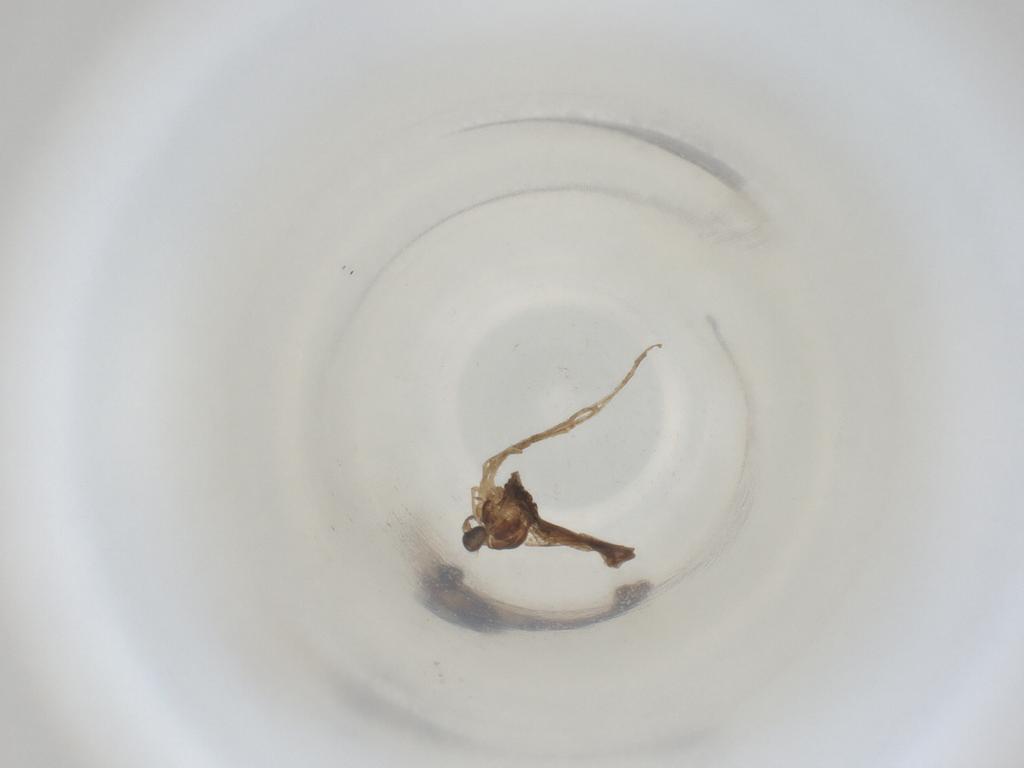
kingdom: Animalia
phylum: Arthropoda
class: Insecta
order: Diptera
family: Cecidomyiidae
